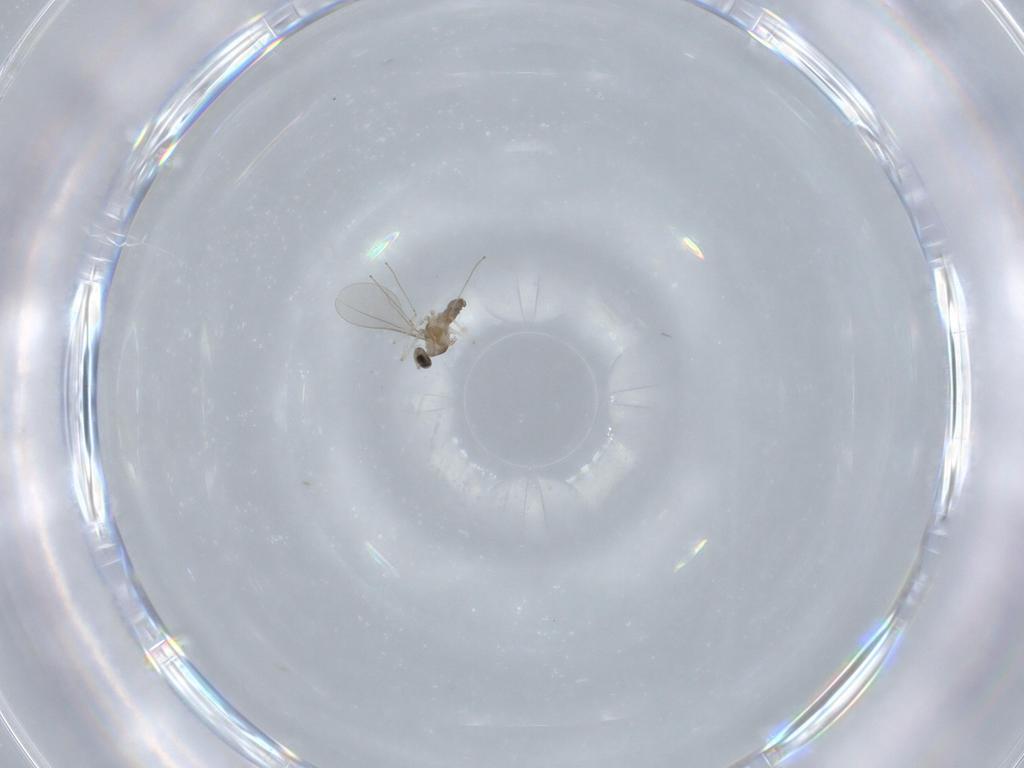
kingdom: Animalia
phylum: Arthropoda
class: Insecta
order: Diptera
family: Cecidomyiidae
